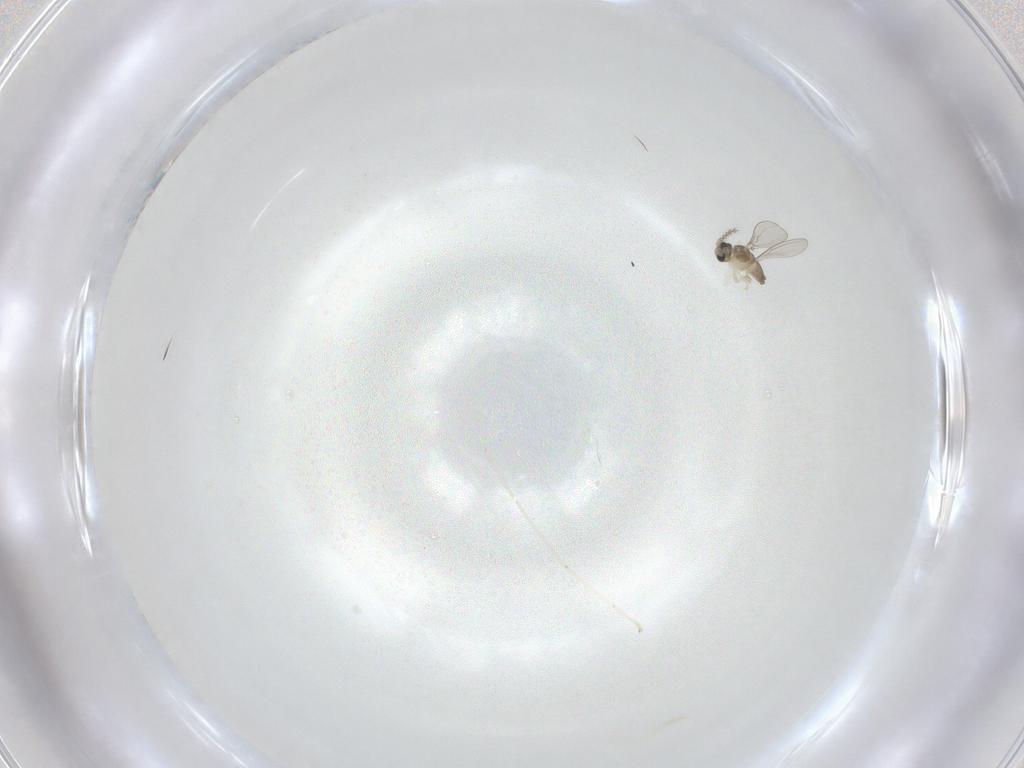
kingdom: Animalia
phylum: Arthropoda
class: Insecta
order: Diptera
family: Cecidomyiidae
